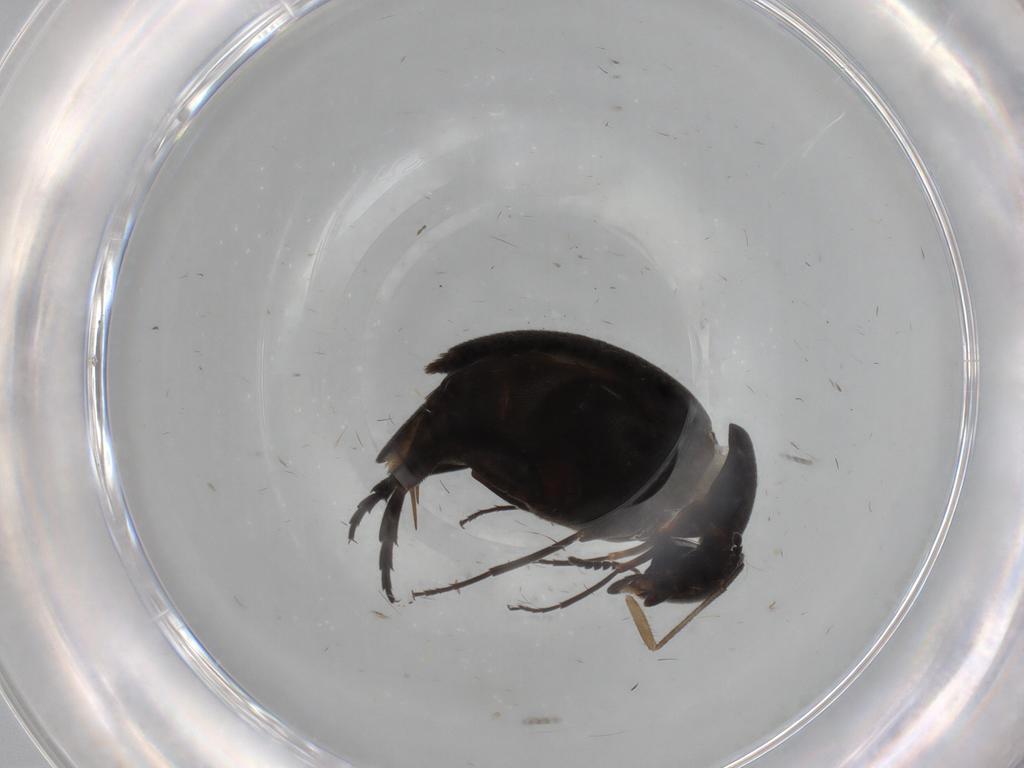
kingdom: Animalia
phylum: Arthropoda
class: Insecta
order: Coleoptera
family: Mordellidae
